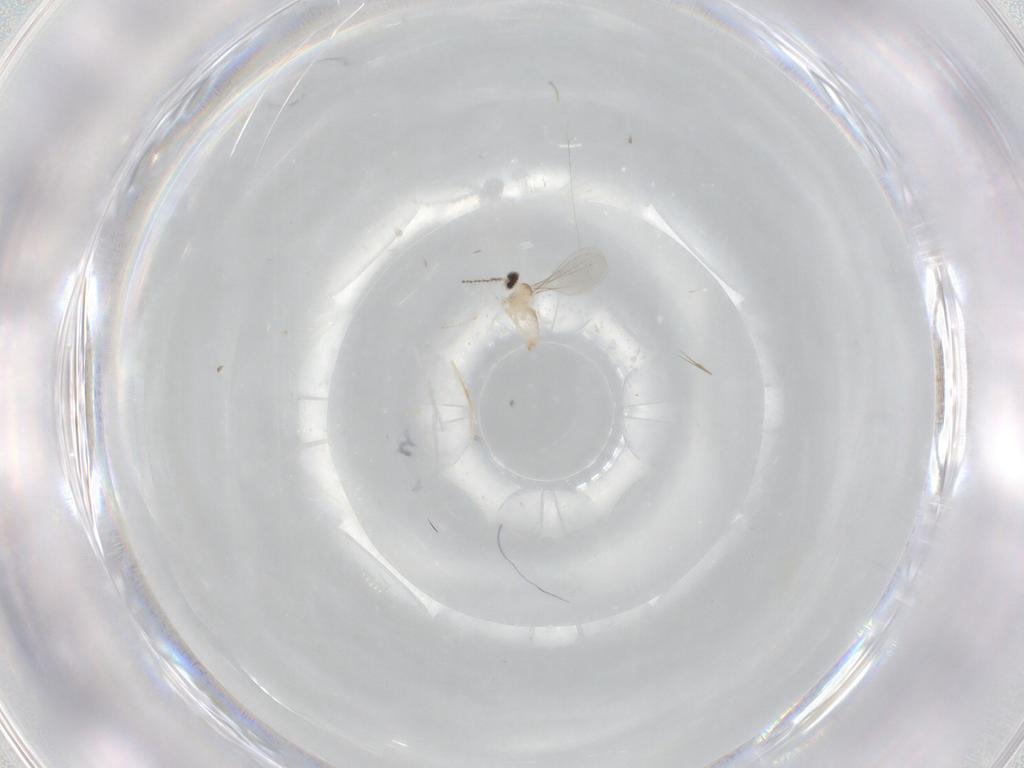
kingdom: Animalia
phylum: Arthropoda
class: Insecta
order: Diptera
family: Cecidomyiidae
